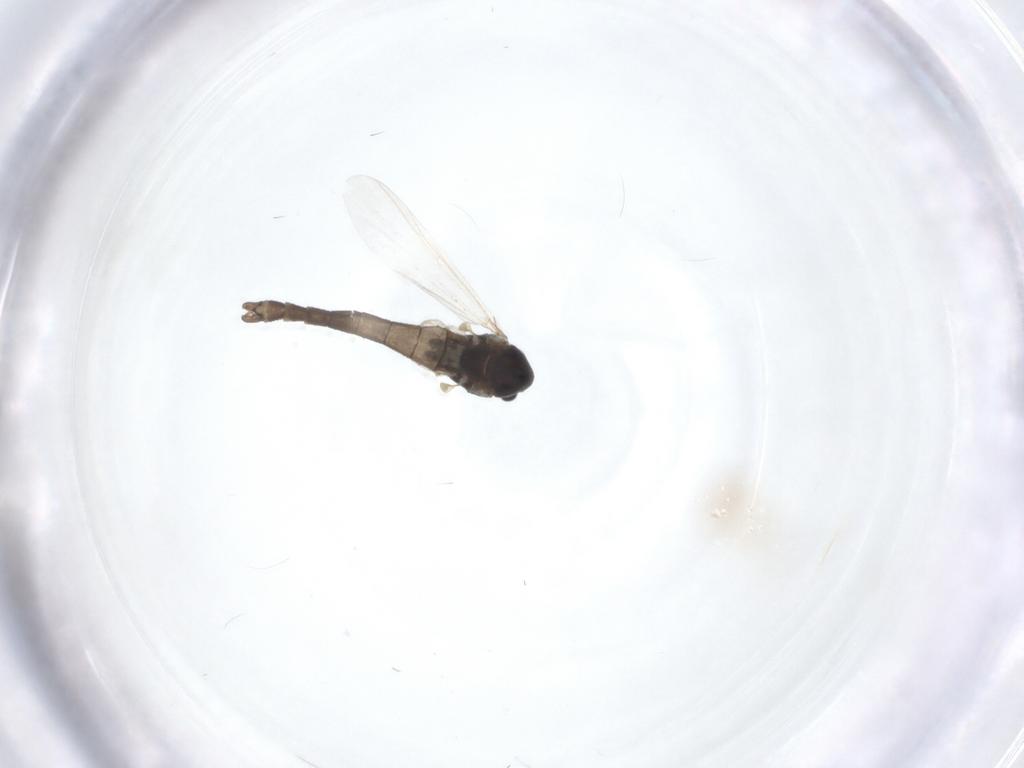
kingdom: Animalia
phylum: Arthropoda
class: Insecta
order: Diptera
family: Chironomidae
